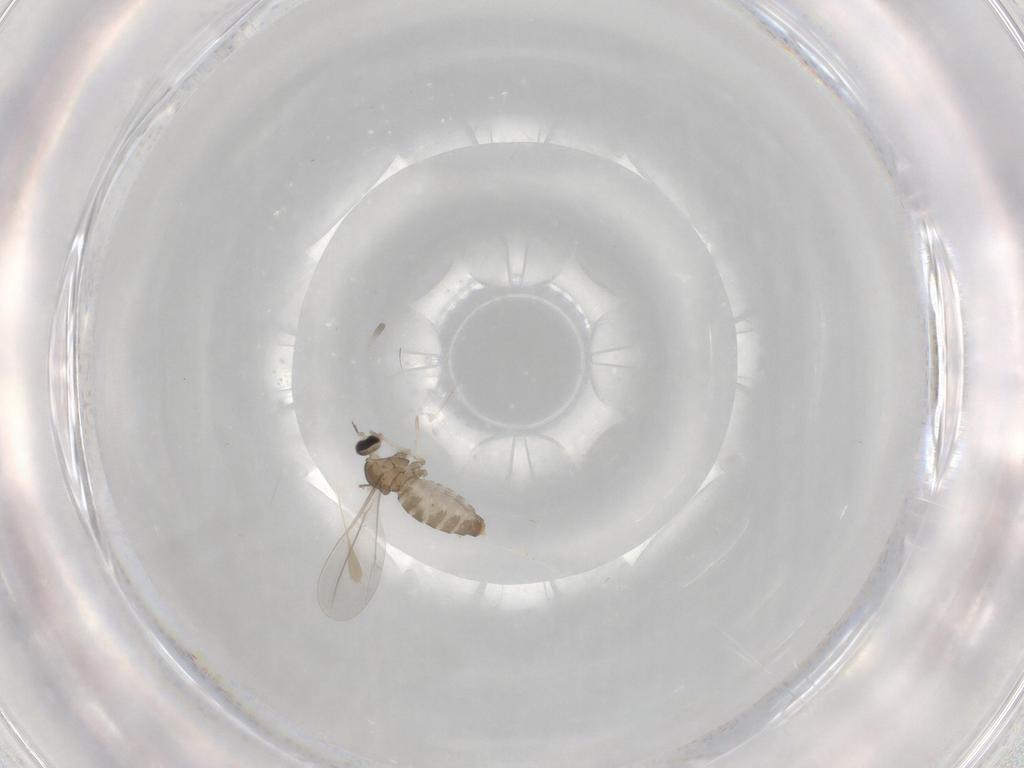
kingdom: Animalia
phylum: Arthropoda
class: Insecta
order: Diptera
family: Cecidomyiidae
